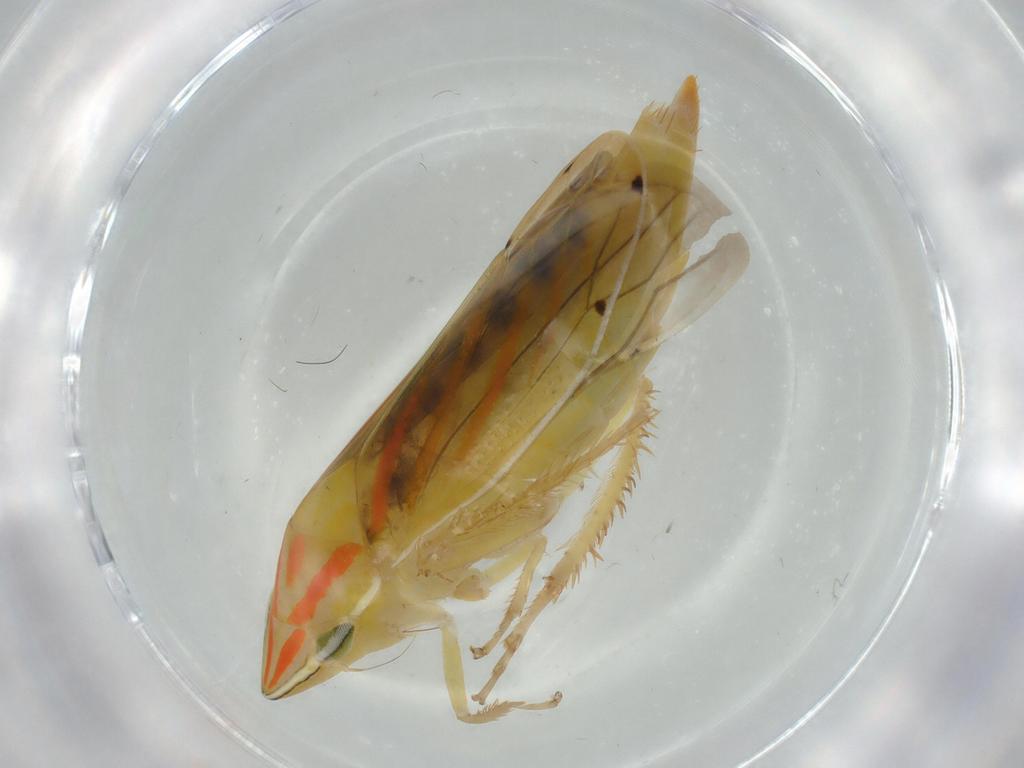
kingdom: Animalia
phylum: Arthropoda
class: Insecta
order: Hemiptera
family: Cicadellidae
